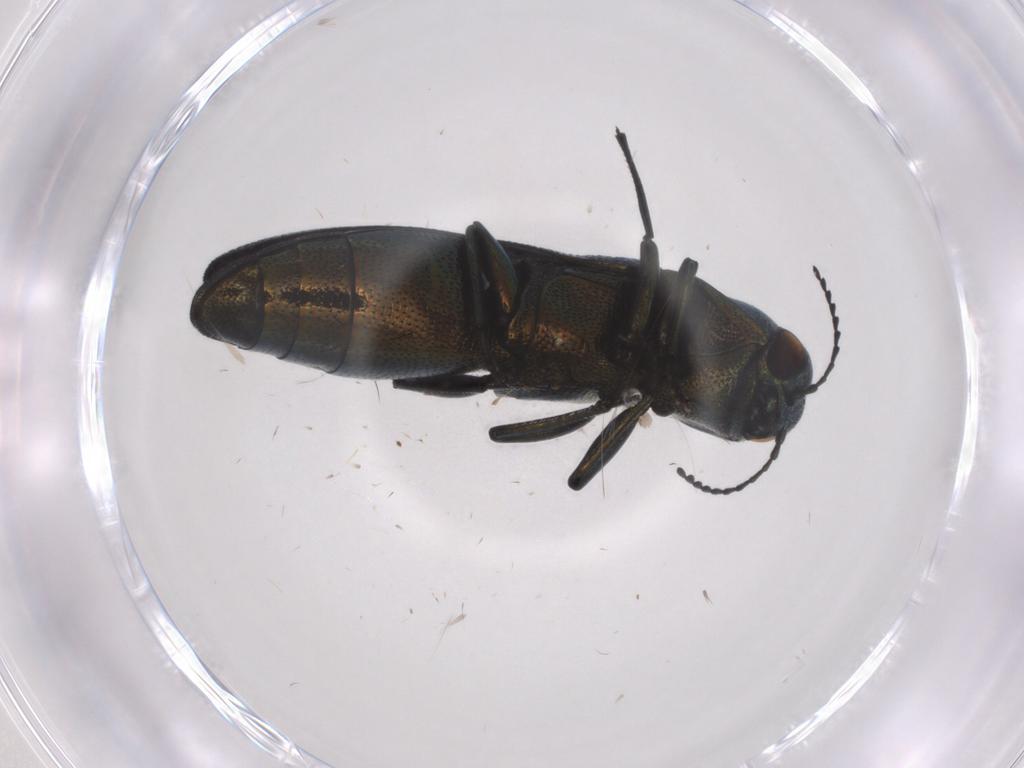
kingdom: Animalia
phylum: Arthropoda
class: Insecta
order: Coleoptera
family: Buprestidae
